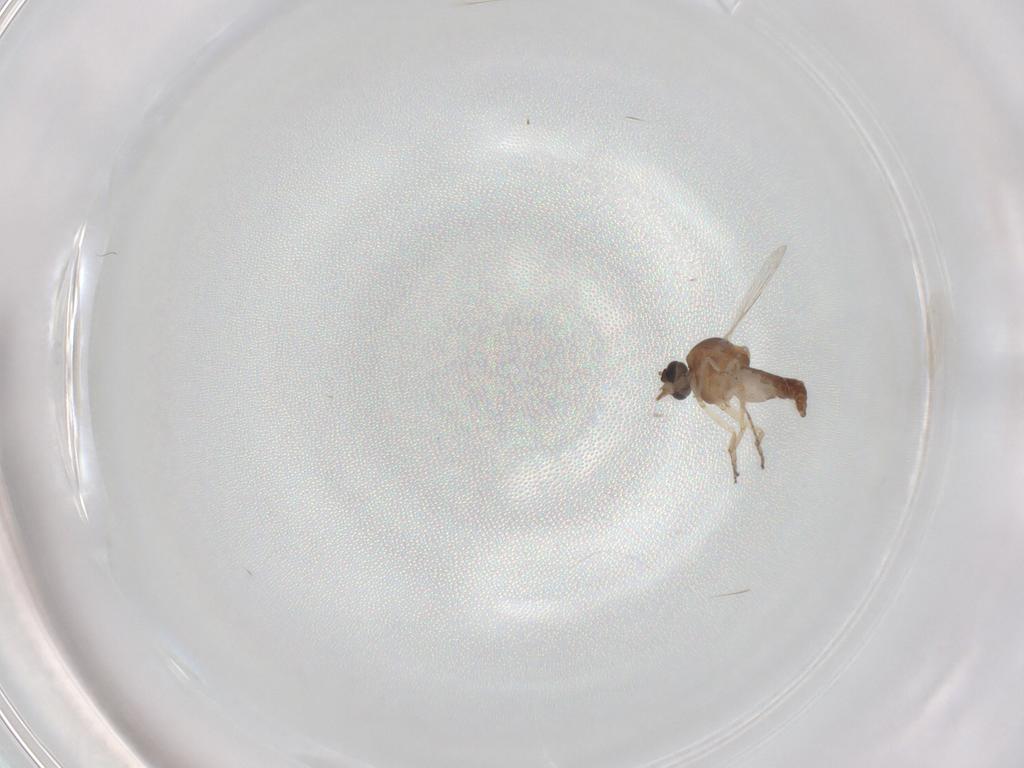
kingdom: Animalia
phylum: Arthropoda
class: Insecta
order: Diptera
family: Ceratopogonidae
